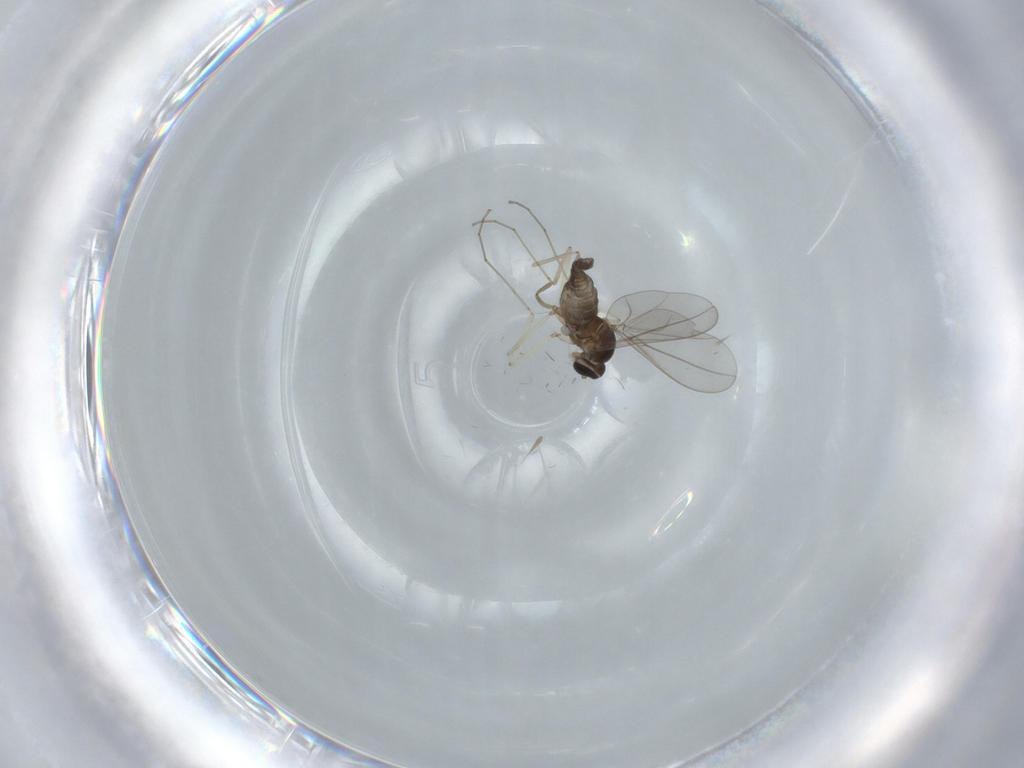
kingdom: Animalia
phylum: Arthropoda
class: Insecta
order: Diptera
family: Cecidomyiidae
